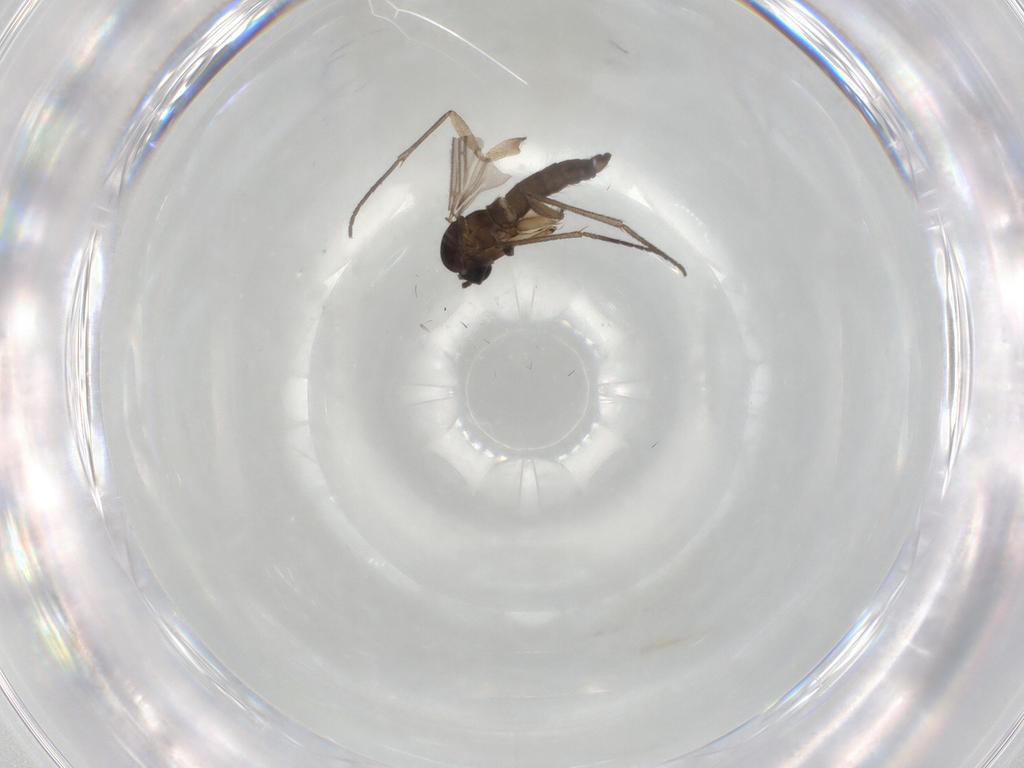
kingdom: Animalia
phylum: Arthropoda
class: Insecta
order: Diptera
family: Sciaridae
